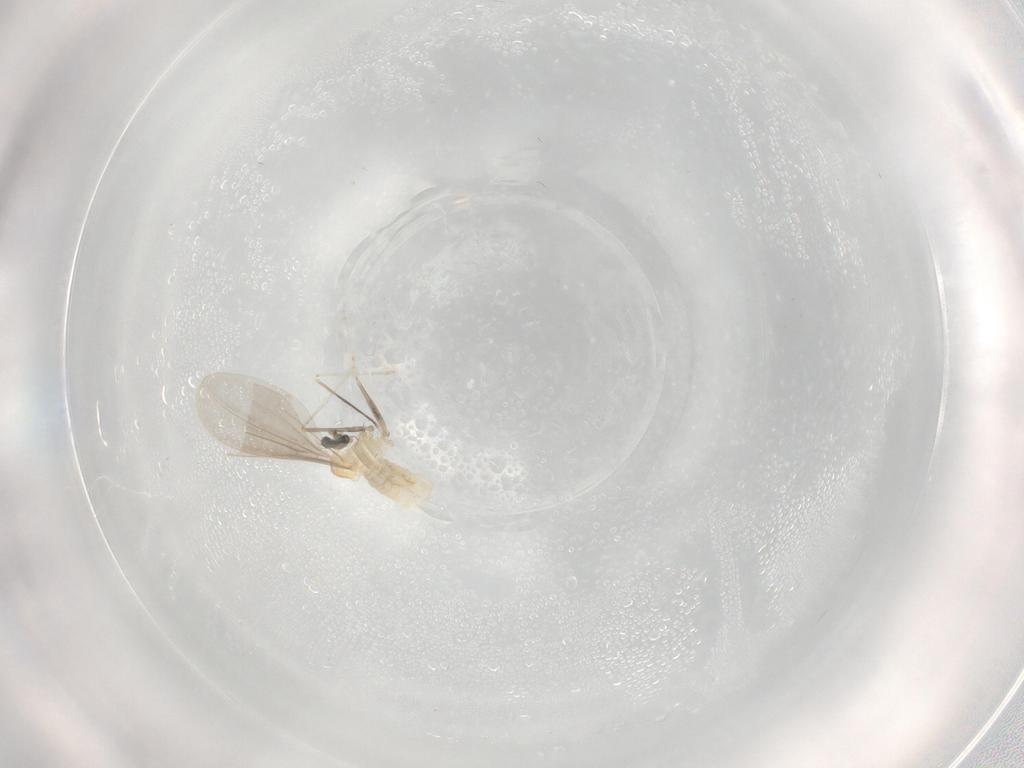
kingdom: Animalia
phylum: Arthropoda
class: Insecta
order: Diptera
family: Cecidomyiidae
